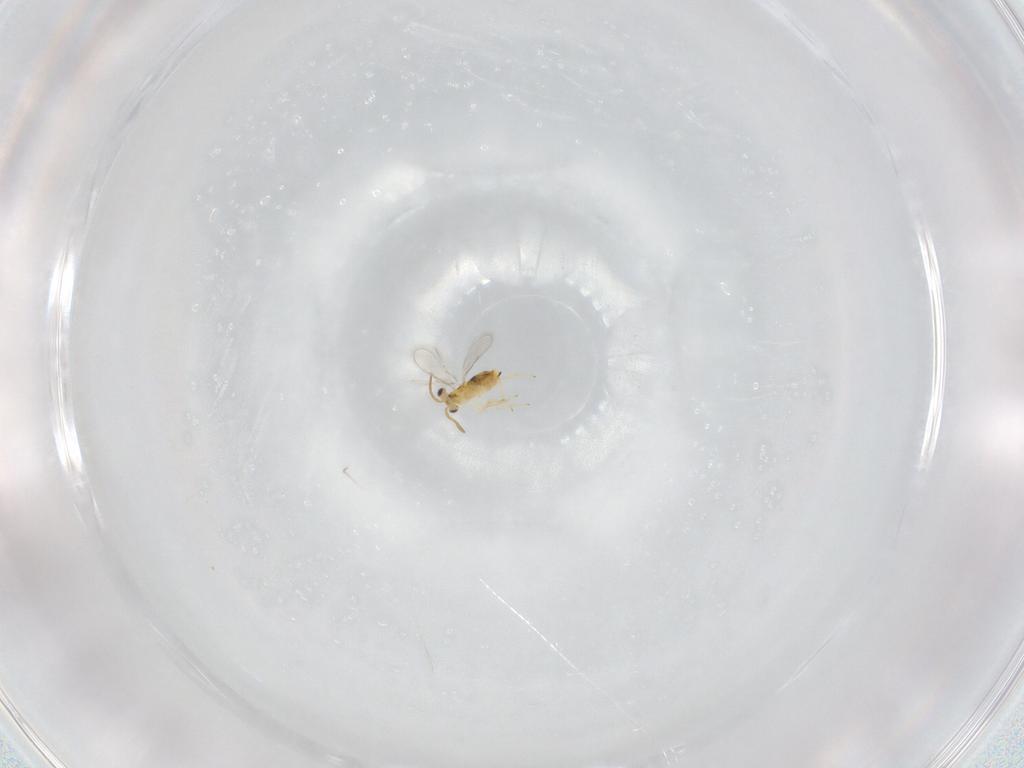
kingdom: Animalia
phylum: Arthropoda
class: Insecta
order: Hymenoptera
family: Aphelinidae
